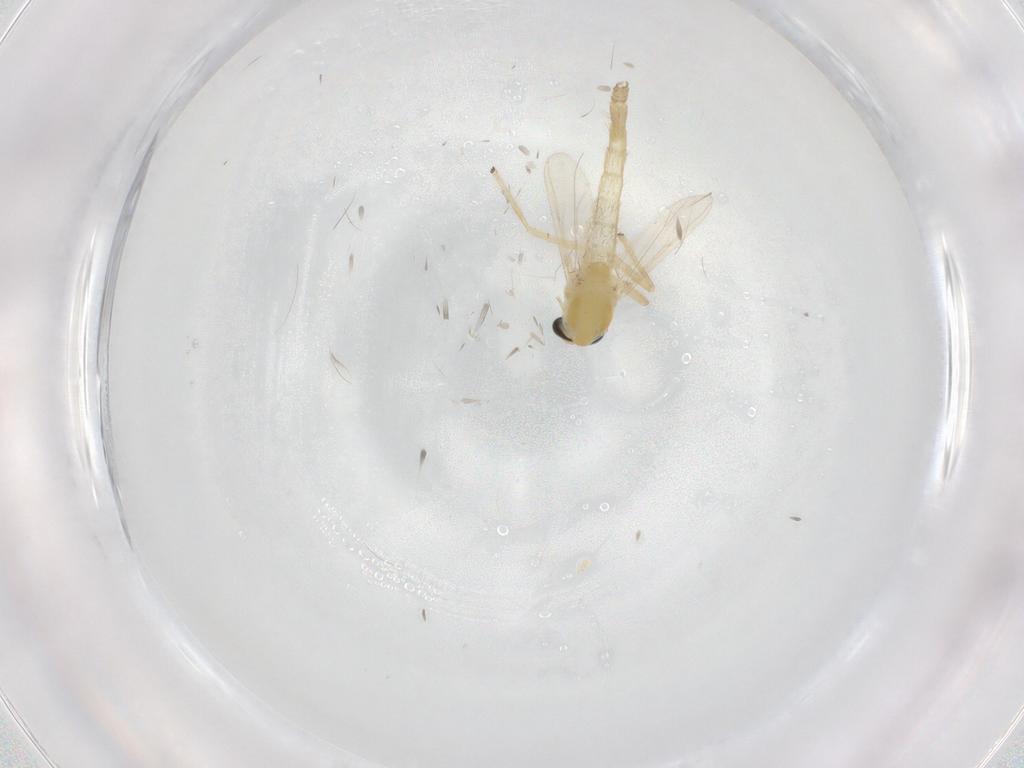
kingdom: Animalia
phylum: Arthropoda
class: Insecta
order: Diptera
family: Chironomidae
